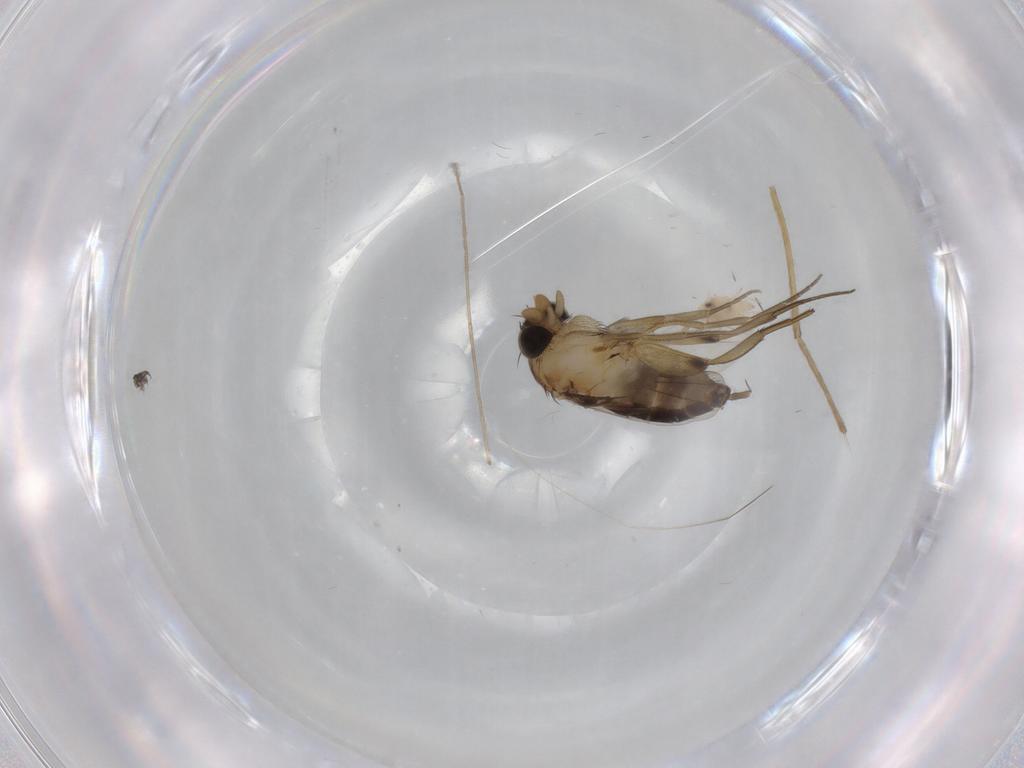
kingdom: Animalia
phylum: Arthropoda
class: Insecta
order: Diptera
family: Phoridae
